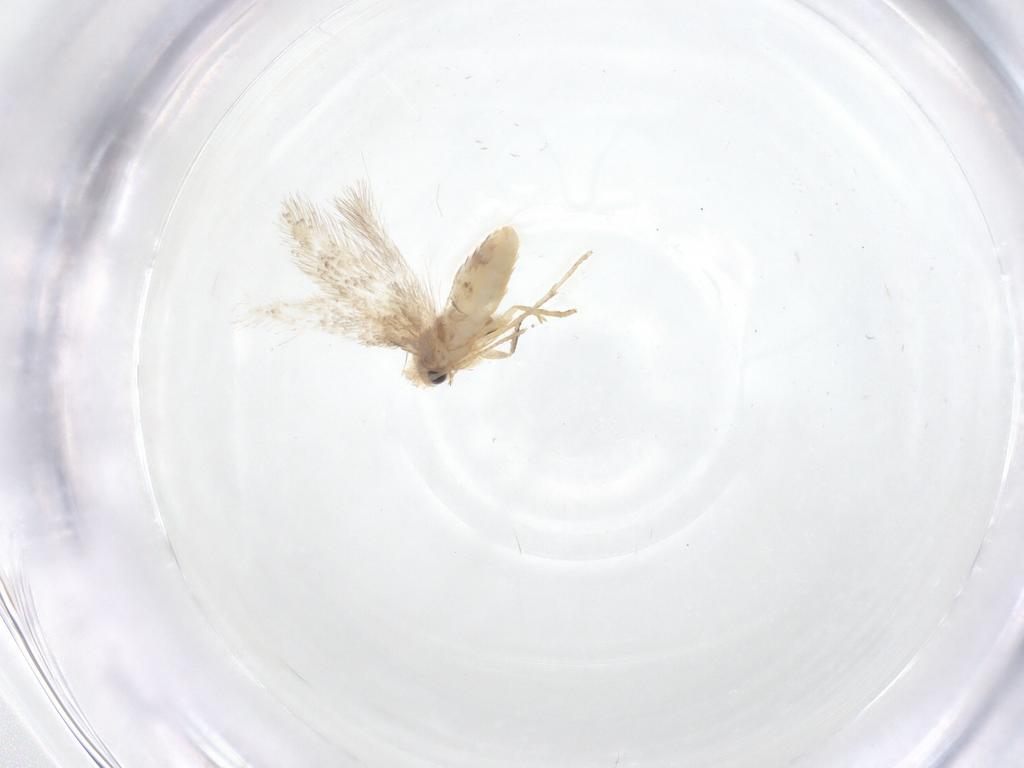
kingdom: Animalia
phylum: Arthropoda
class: Insecta
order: Lepidoptera
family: Nepticulidae
